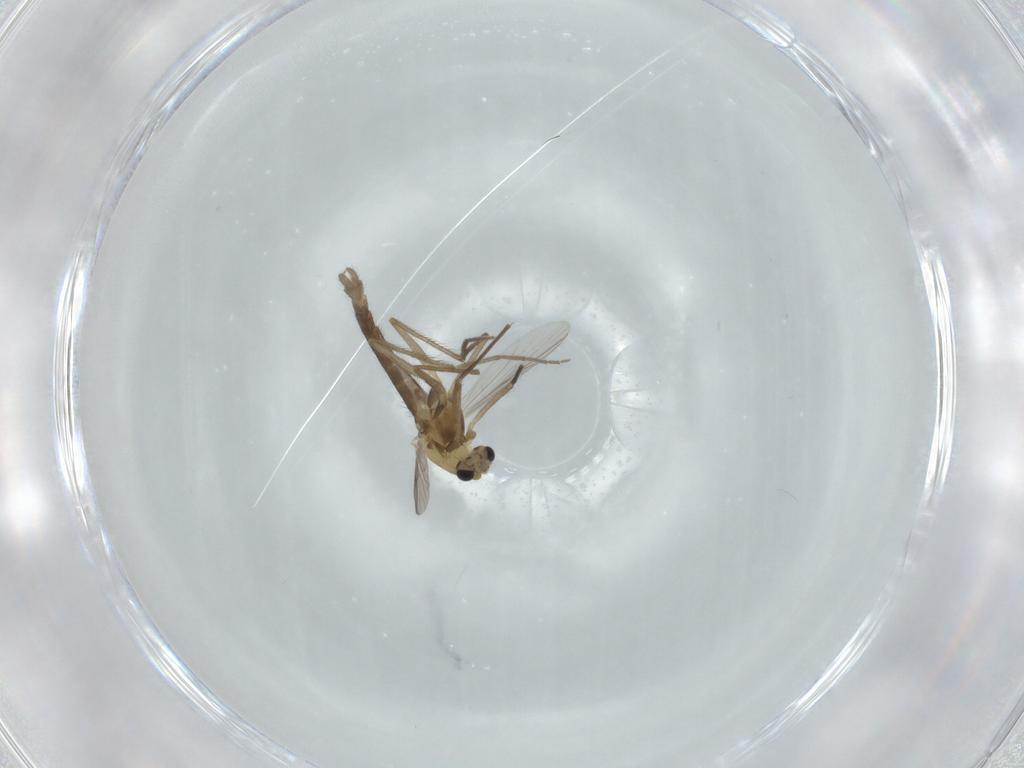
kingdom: Animalia
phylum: Arthropoda
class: Insecta
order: Diptera
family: Chironomidae
